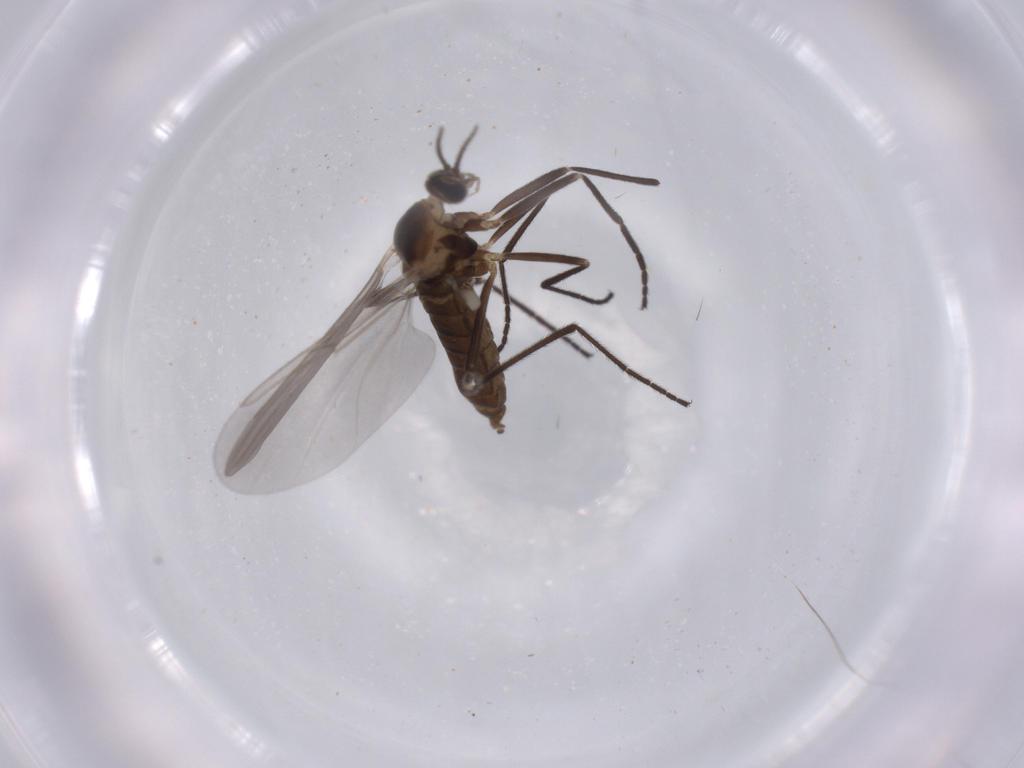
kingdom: Animalia
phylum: Arthropoda
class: Insecta
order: Diptera
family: Cecidomyiidae
